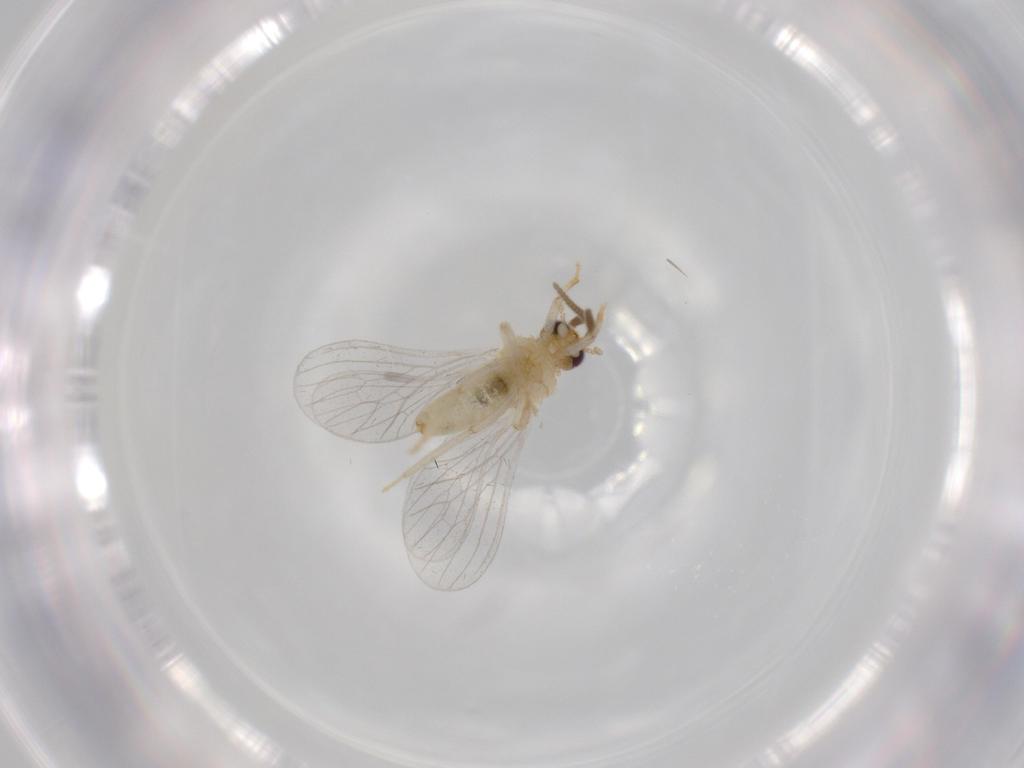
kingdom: Animalia
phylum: Arthropoda
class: Insecta
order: Neuroptera
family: Coniopterygidae
